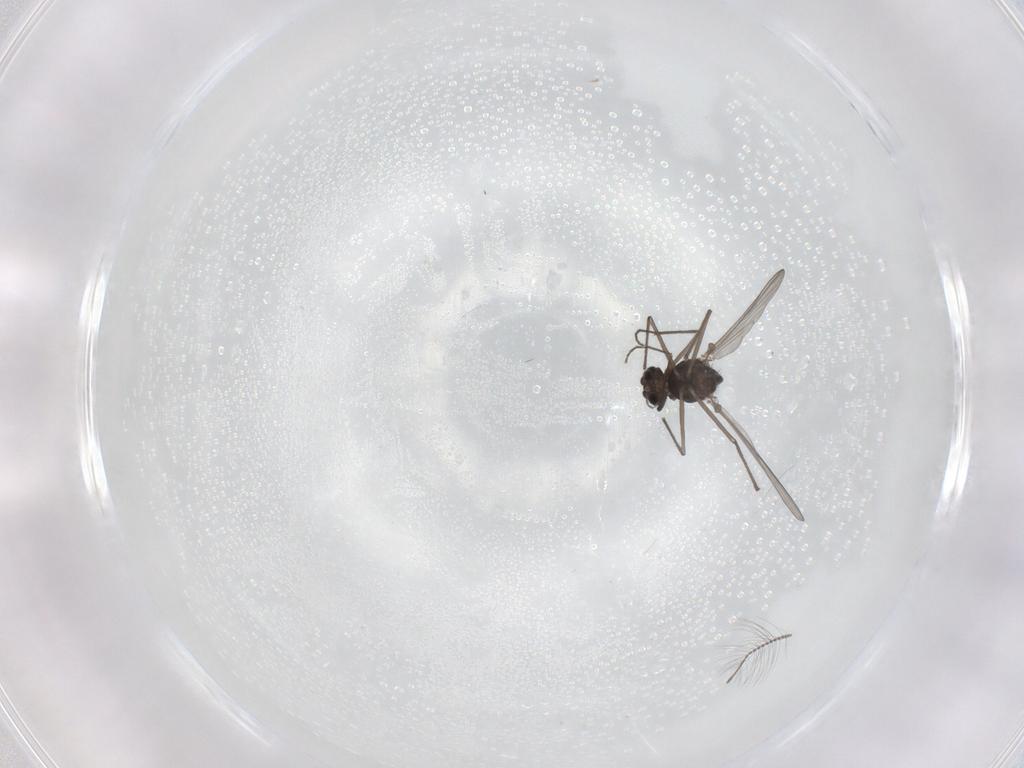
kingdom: Animalia
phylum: Arthropoda
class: Insecta
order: Diptera
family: Chironomidae
